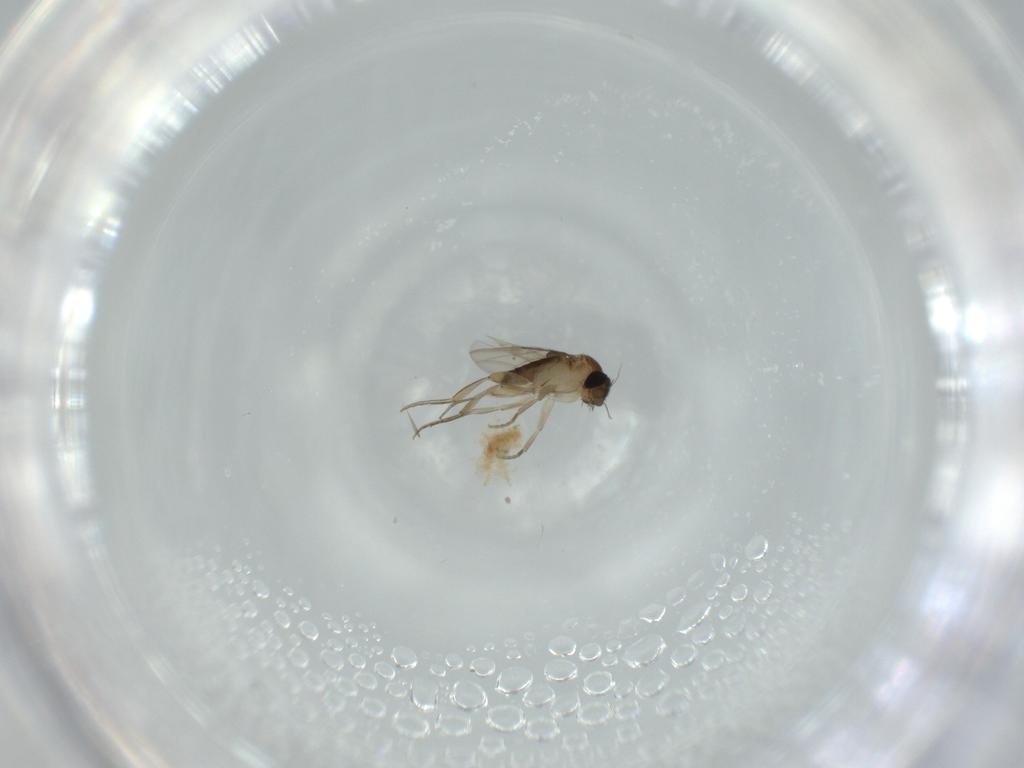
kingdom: Animalia
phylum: Arthropoda
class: Insecta
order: Diptera
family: Phoridae
